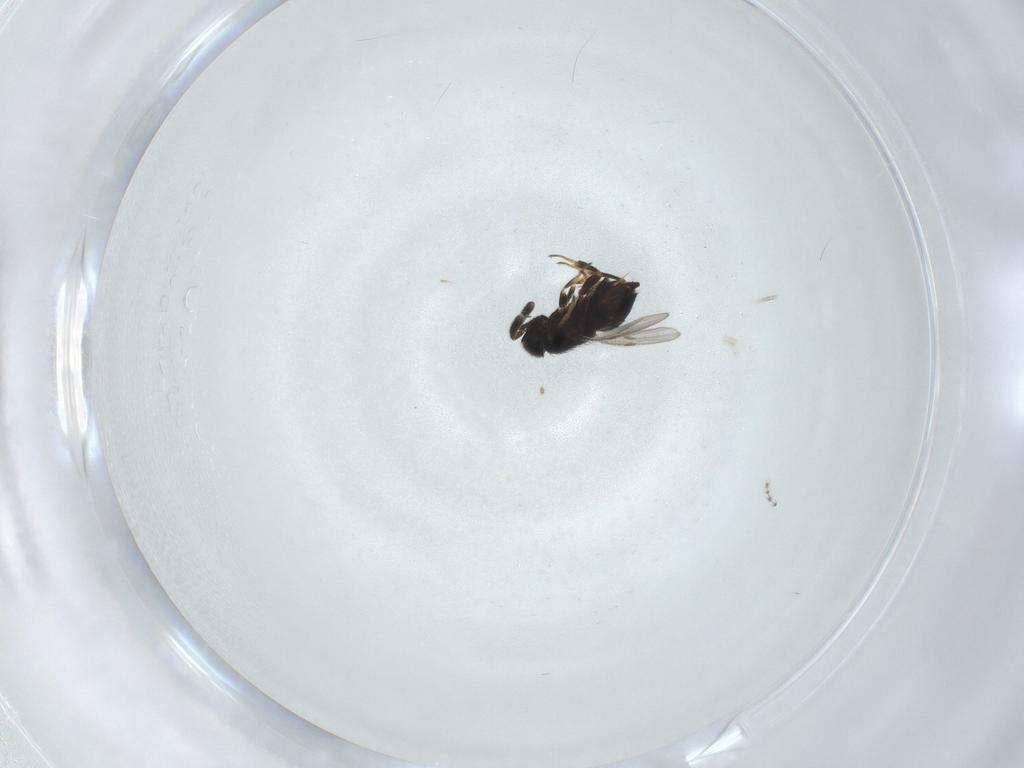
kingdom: Animalia
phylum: Arthropoda
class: Insecta
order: Hymenoptera
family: Encyrtidae
